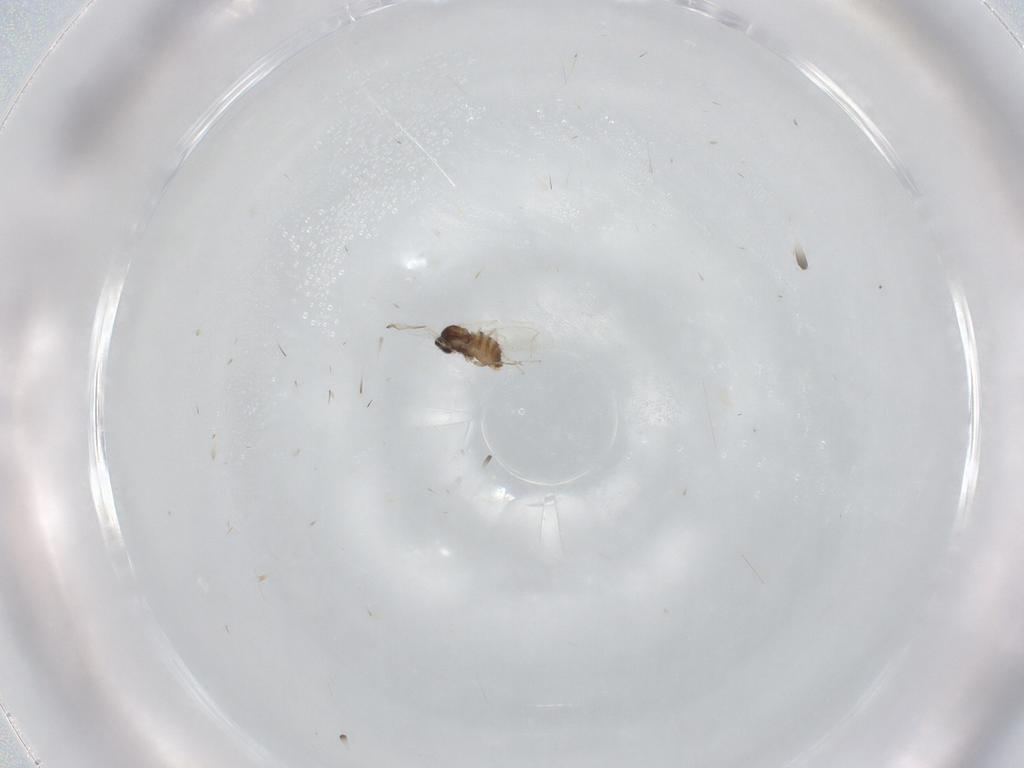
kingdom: Animalia
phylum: Arthropoda
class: Insecta
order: Diptera
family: Cecidomyiidae
